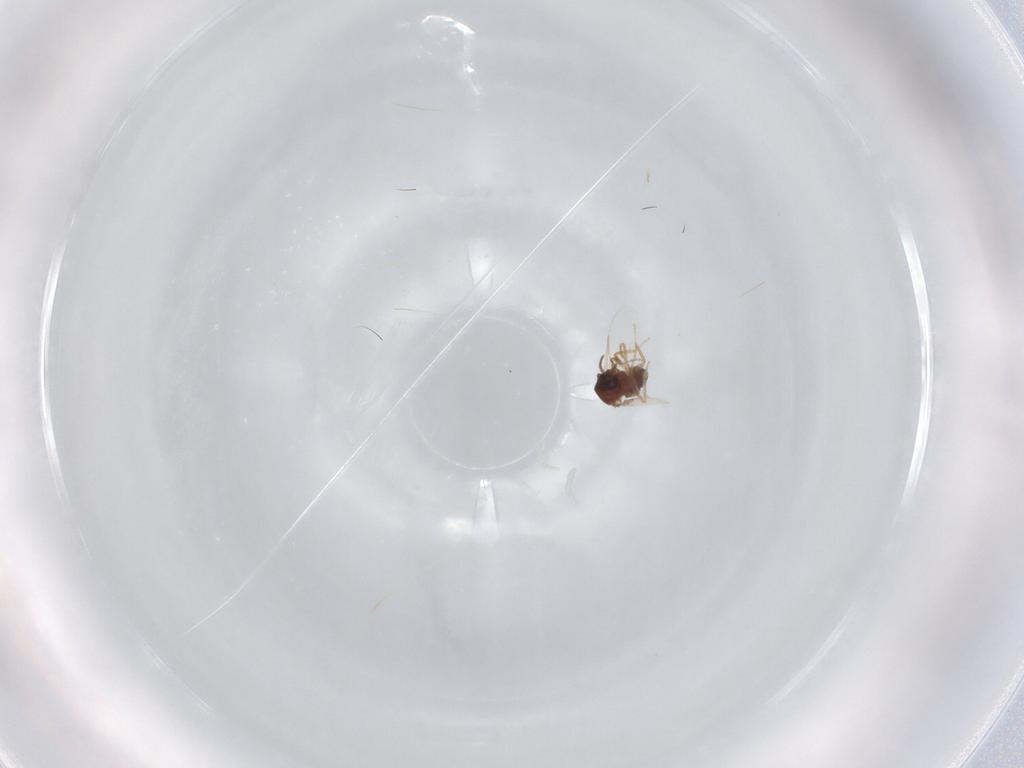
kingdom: Animalia
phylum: Arthropoda
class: Insecta
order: Diptera
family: Ceratopogonidae
